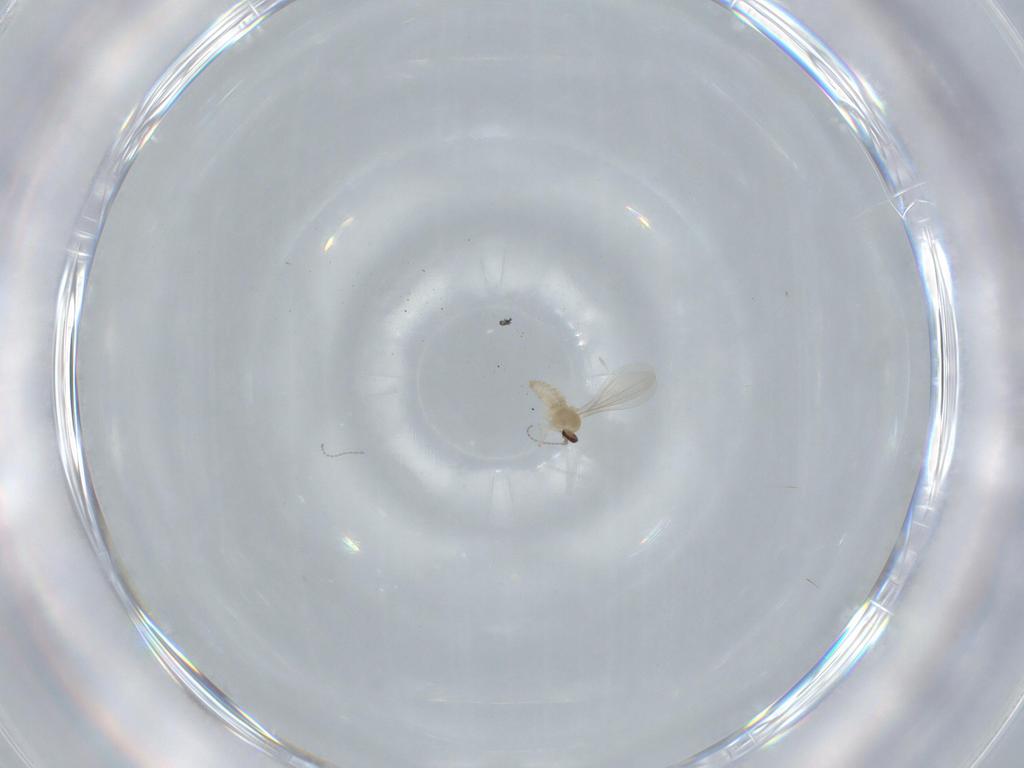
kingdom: Animalia
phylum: Arthropoda
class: Insecta
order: Diptera
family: Cecidomyiidae
